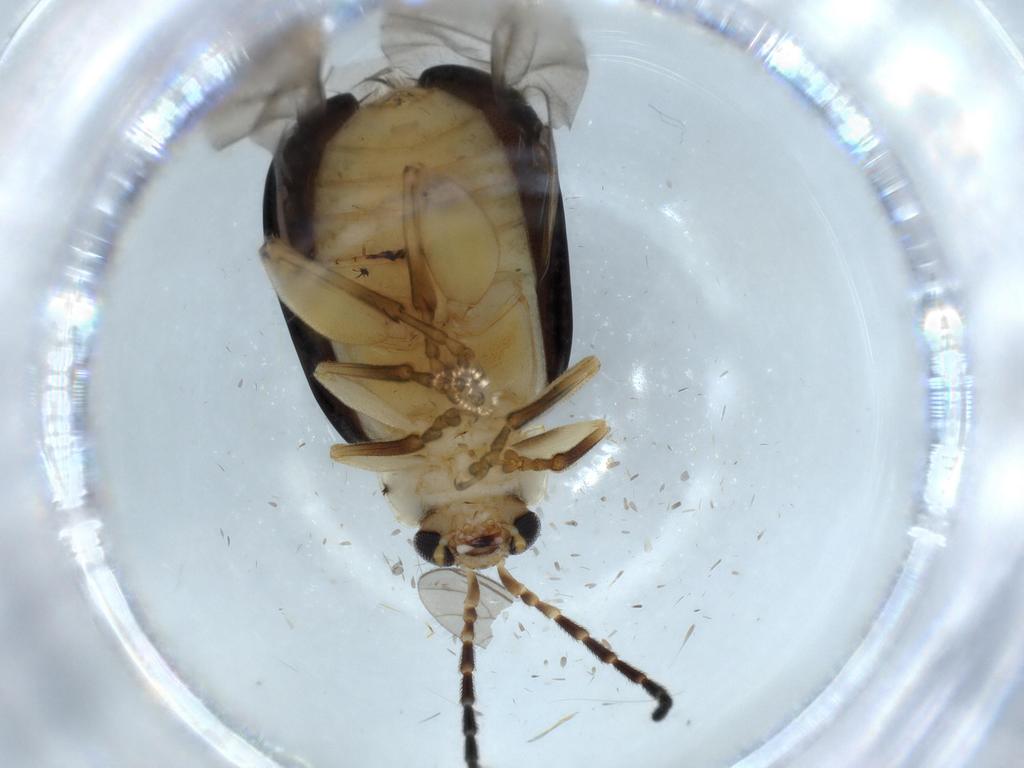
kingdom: Animalia
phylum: Arthropoda
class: Insecta
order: Coleoptera
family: Chrysomelidae
